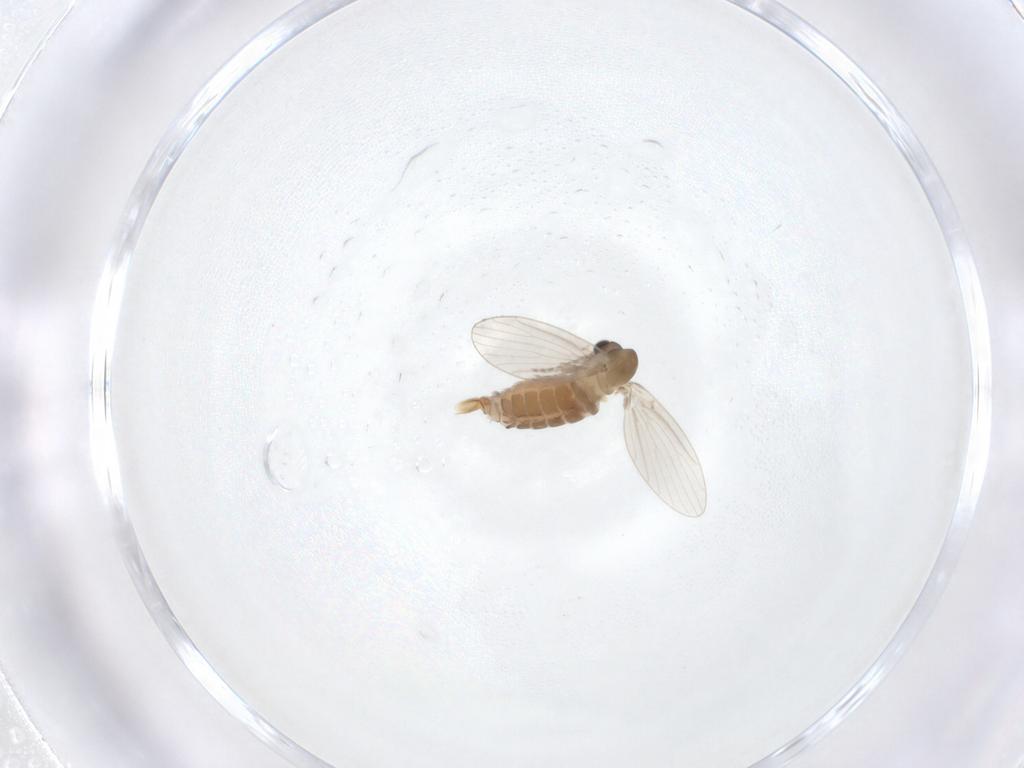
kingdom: Animalia
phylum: Arthropoda
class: Insecta
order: Diptera
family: Psychodidae
